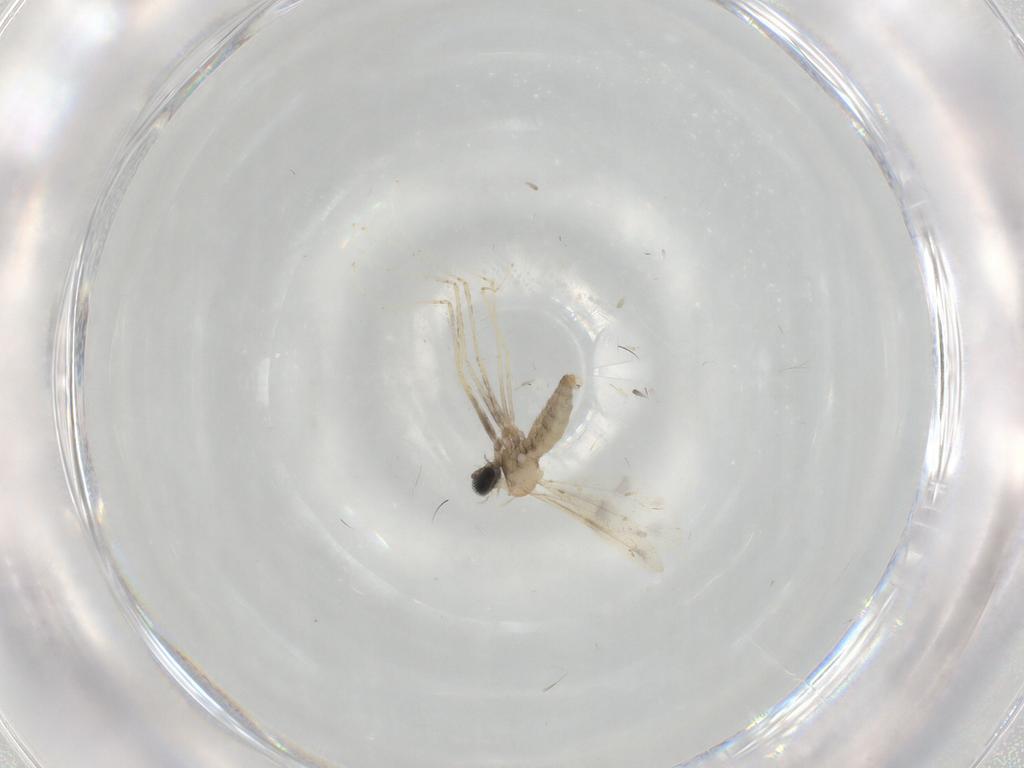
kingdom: Animalia
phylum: Arthropoda
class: Insecta
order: Diptera
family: Cecidomyiidae
